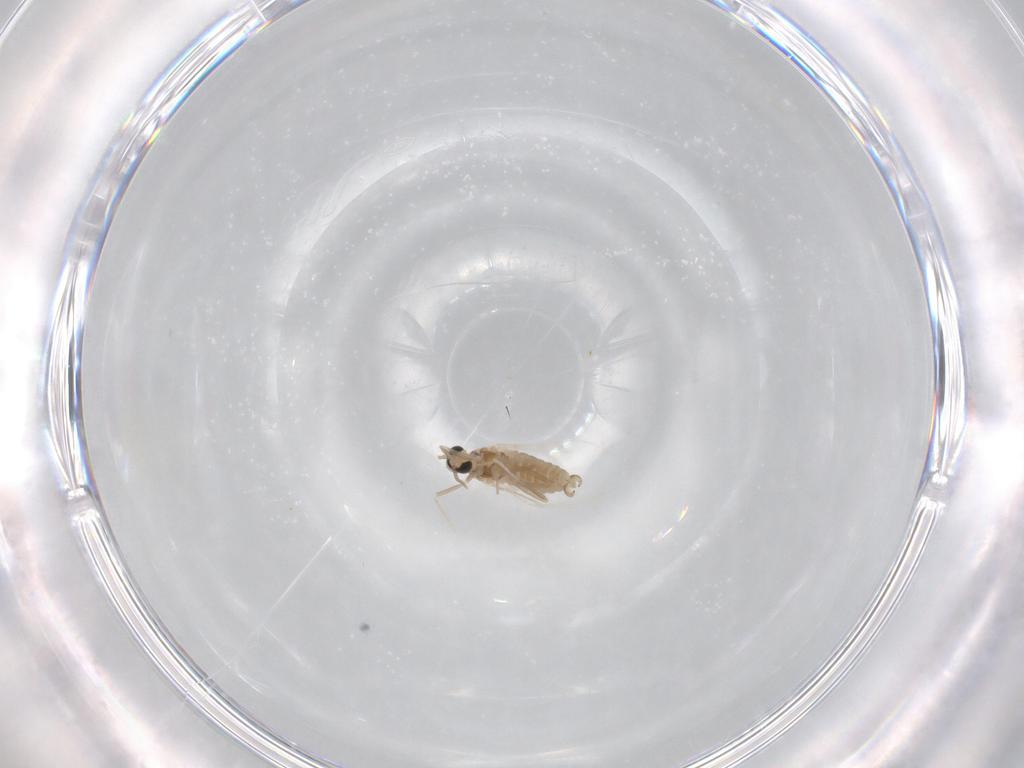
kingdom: Animalia
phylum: Arthropoda
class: Insecta
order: Diptera
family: Cecidomyiidae
